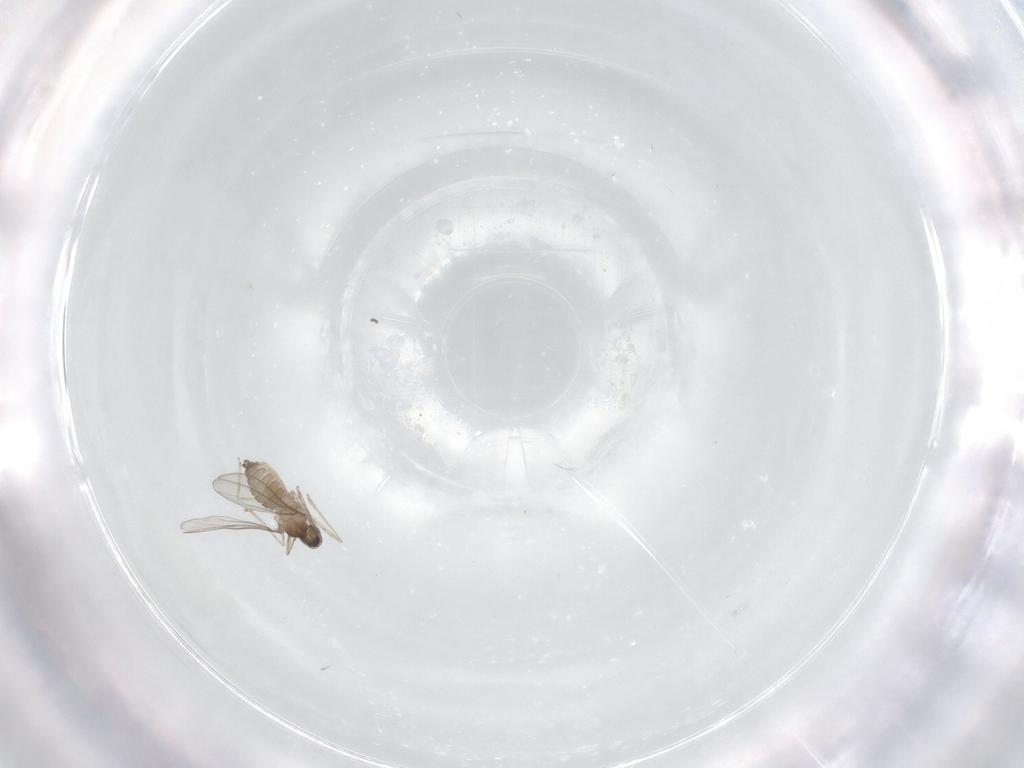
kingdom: Animalia
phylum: Arthropoda
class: Insecta
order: Diptera
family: Cecidomyiidae
